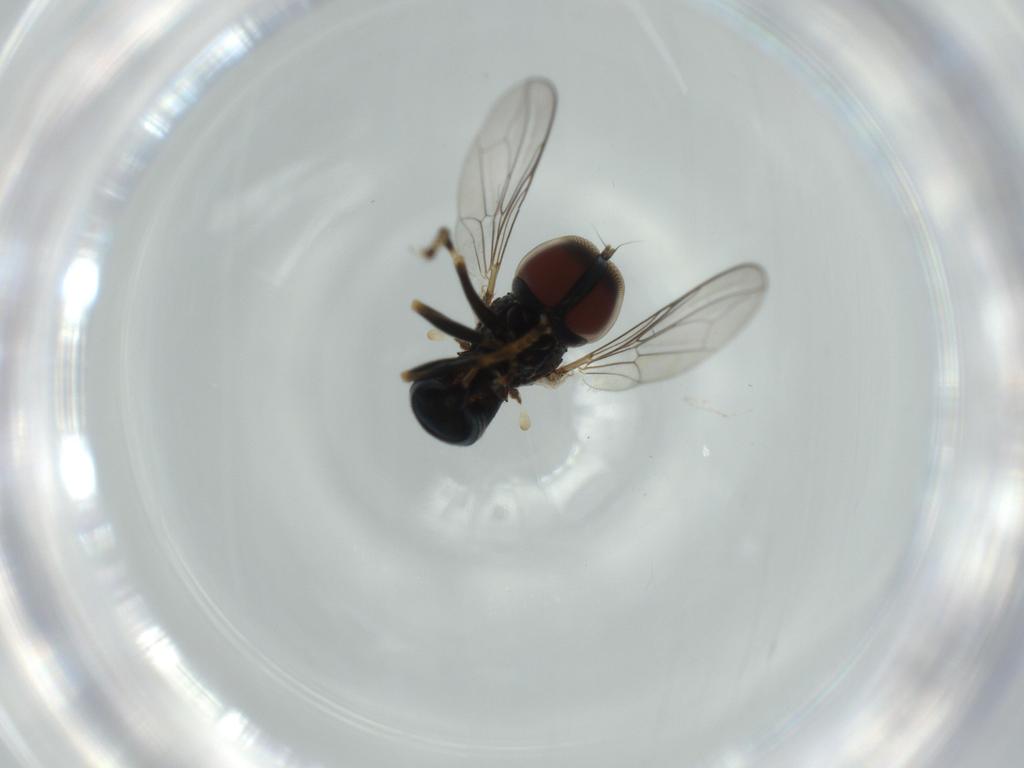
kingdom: Animalia
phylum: Arthropoda
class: Insecta
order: Diptera
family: Pipunculidae
